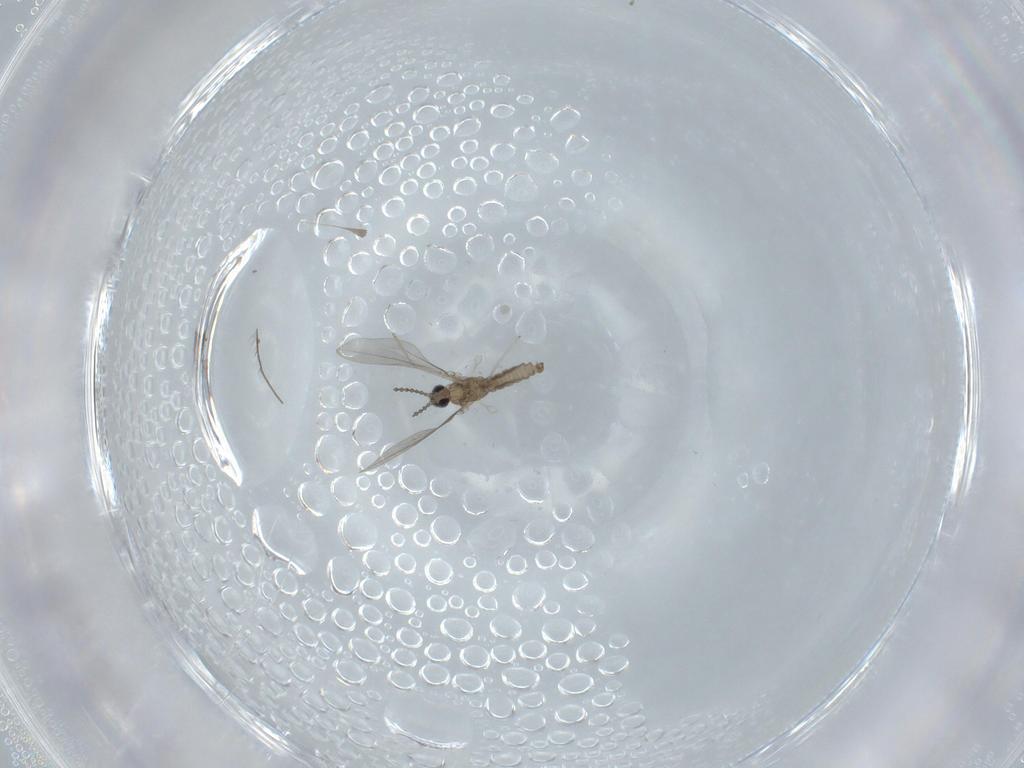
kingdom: Animalia
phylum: Arthropoda
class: Insecta
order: Diptera
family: Cecidomyiidae
